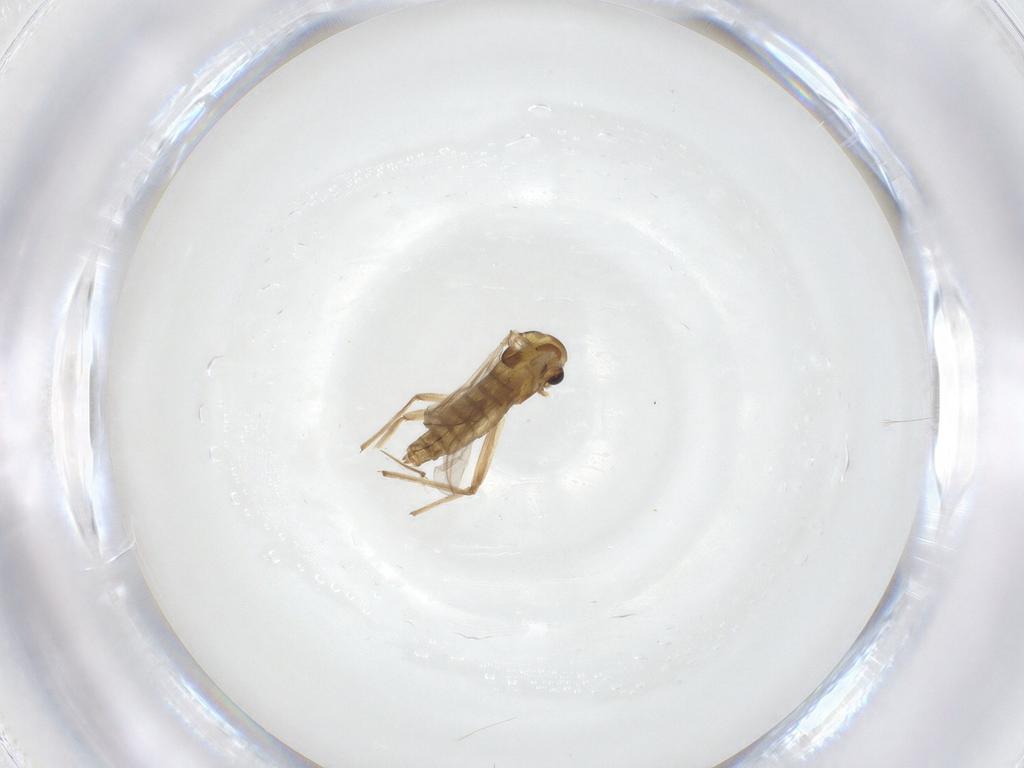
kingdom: Animalia
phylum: Arthropoda
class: Insecta
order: Diptera
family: Chironomidae
